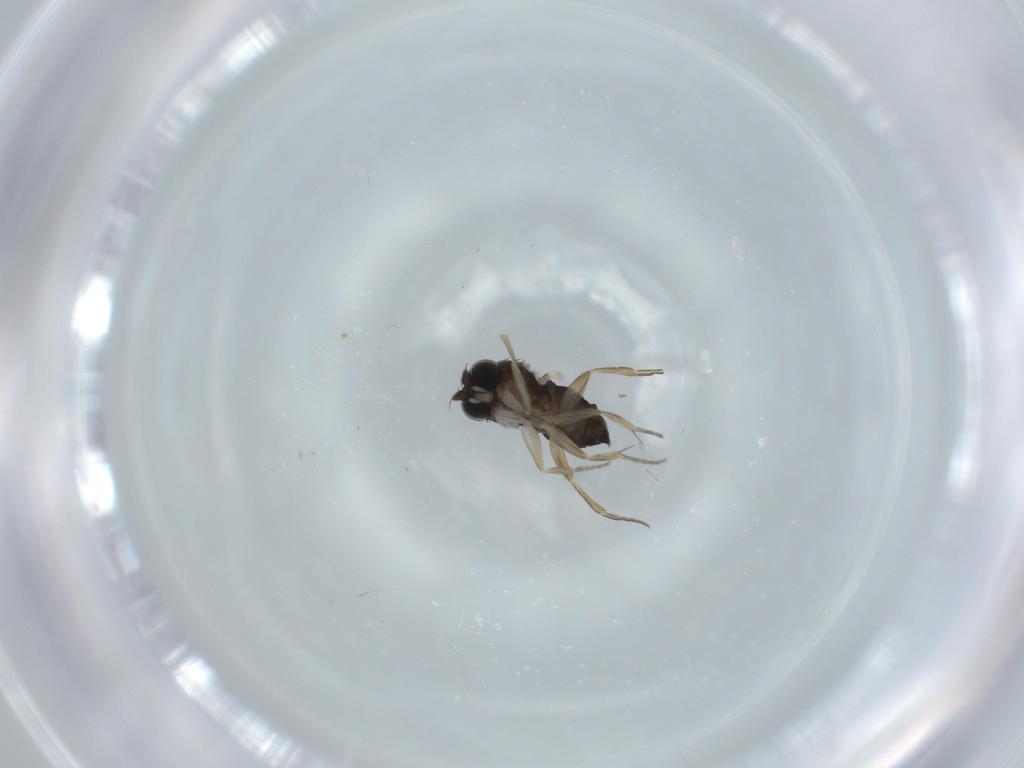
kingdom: Animalia
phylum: Arthropoda
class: Insecta
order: Diptera
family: Phoridae
